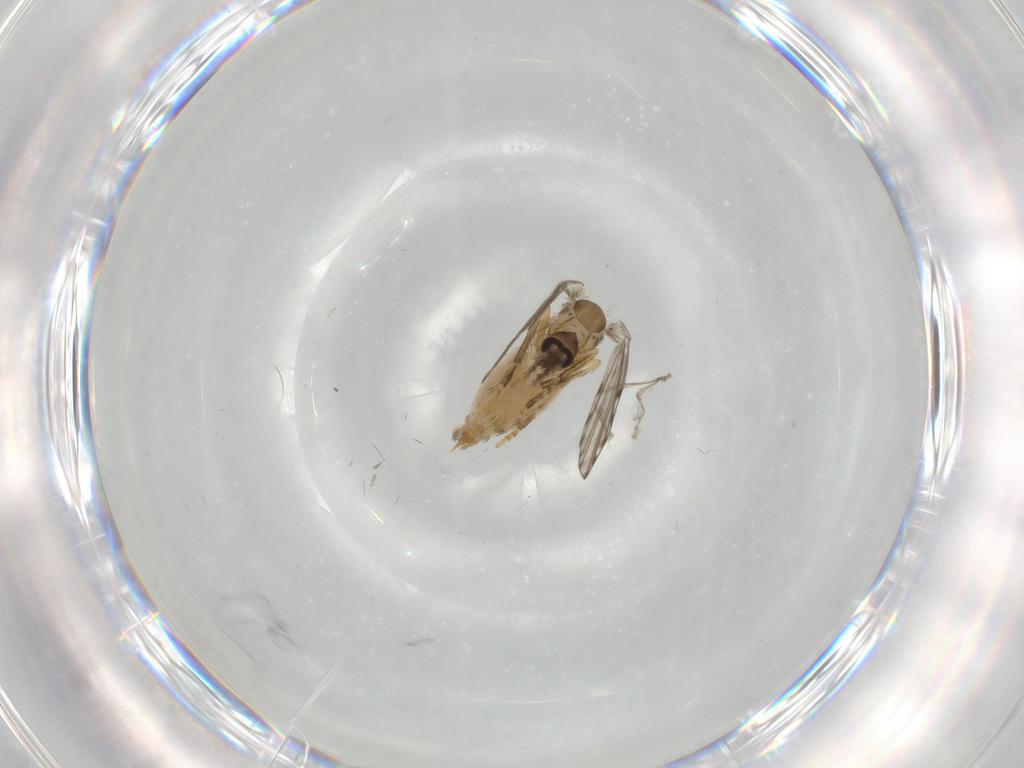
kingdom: Animalia
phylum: Arthropoda
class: Insecta
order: Diptera
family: Psychodidae
